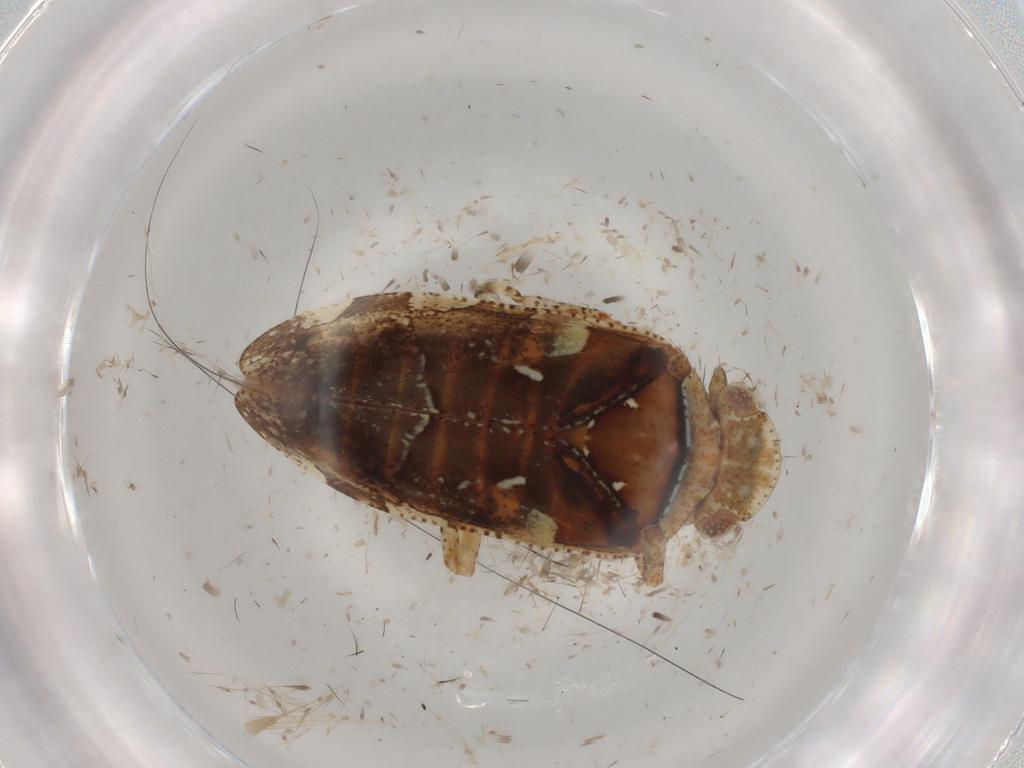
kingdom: Animalia
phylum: Arthropoda
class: Insecta
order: Hemiptera
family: Tettigometridae
